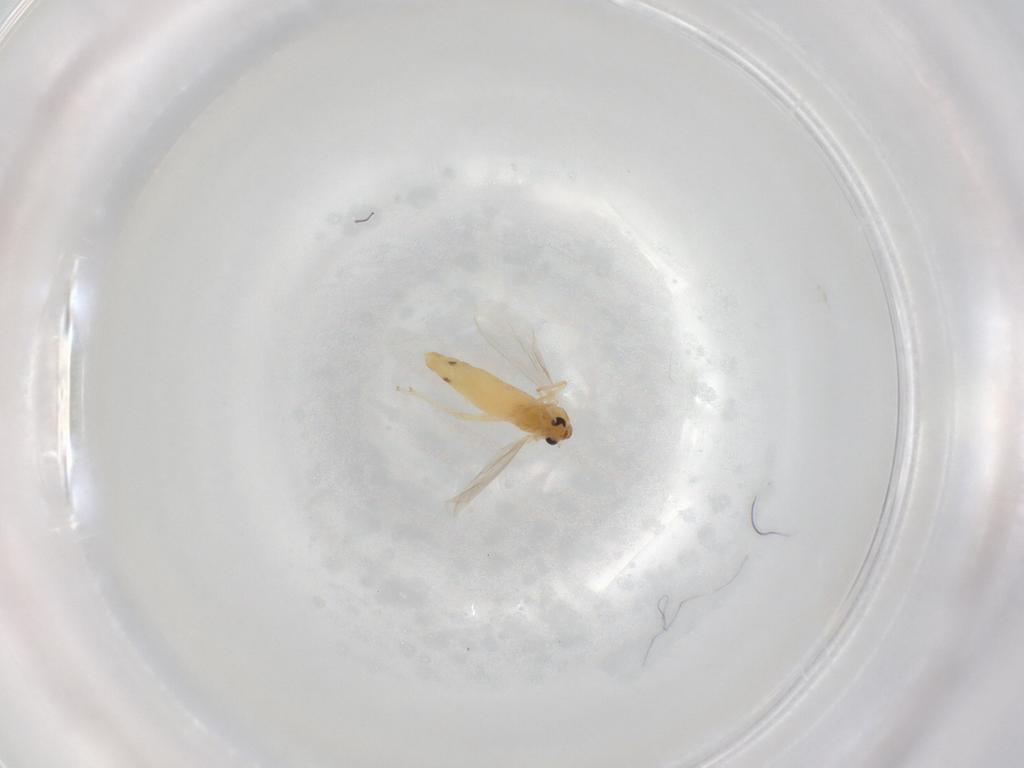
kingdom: Animalia
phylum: Arthropoda
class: Insecta
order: Diptera
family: Chironomidae
